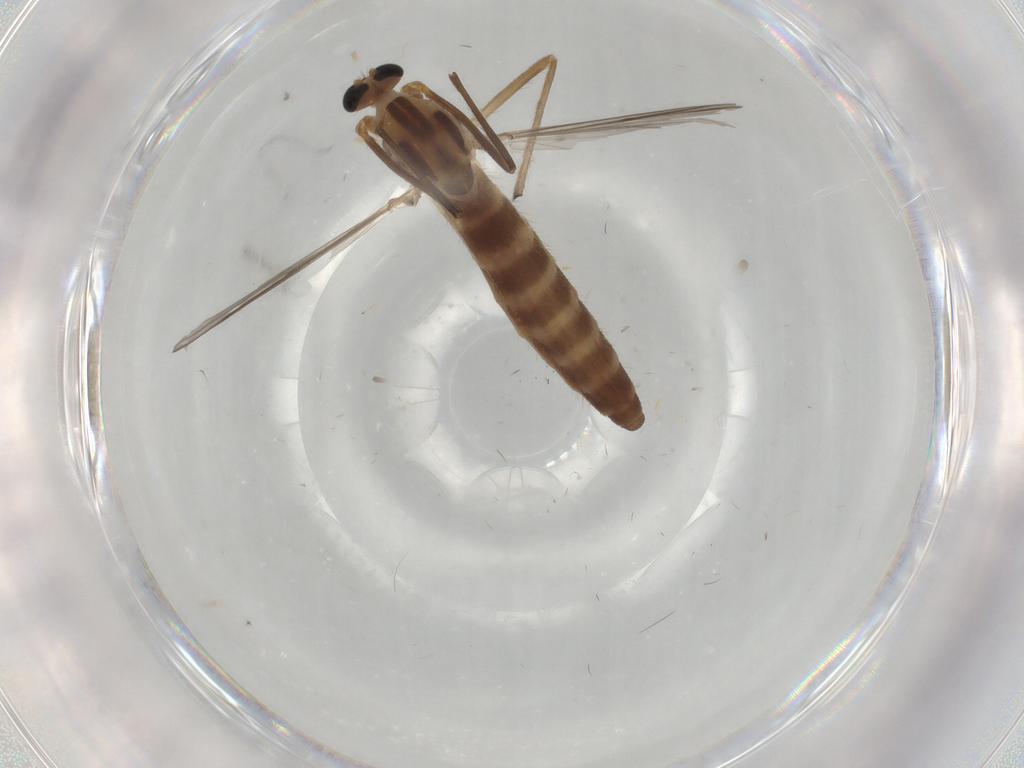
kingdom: Animalia
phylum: Arthropoda
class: Insecta
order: Diptera
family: Chironomidae
